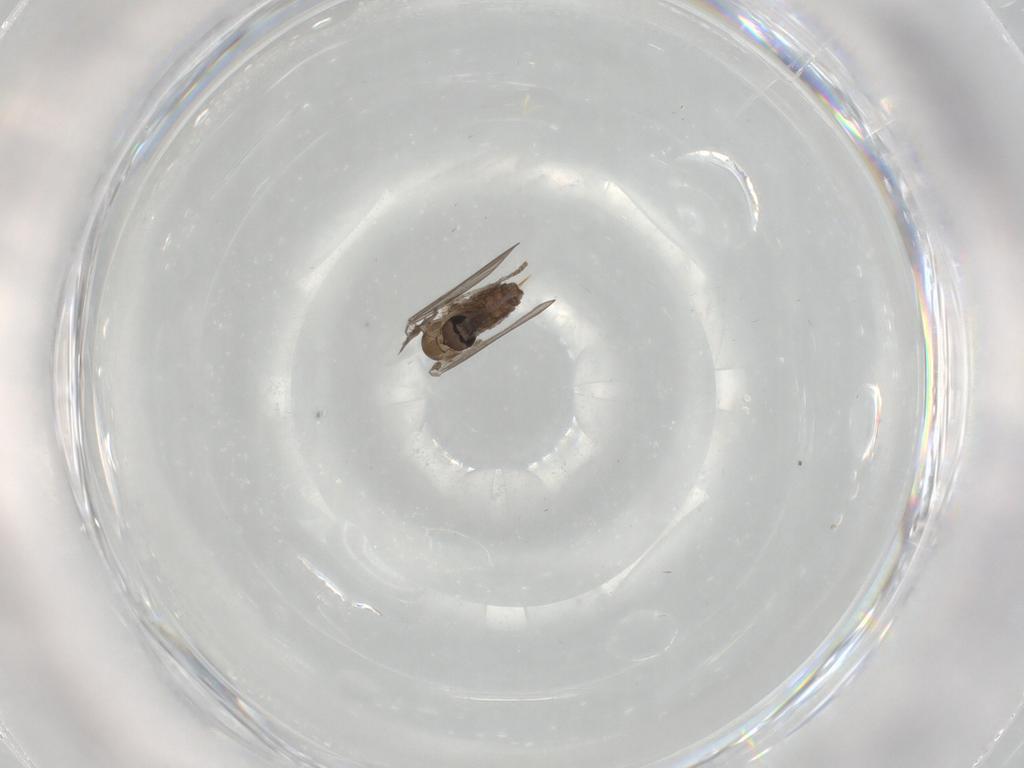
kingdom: Animalia
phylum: Arthropoda
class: Insecta
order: Diptera
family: Psychodidae
